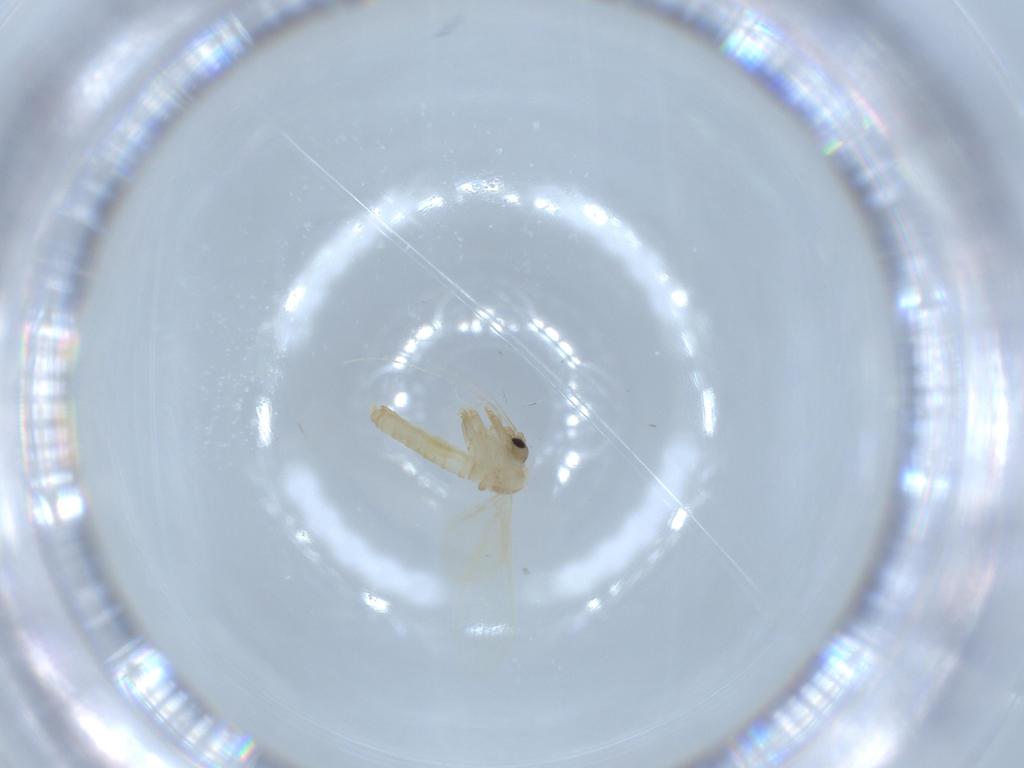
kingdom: Animalia
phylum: Arthropoda
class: Insecta
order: Diptera
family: Psychodidae
